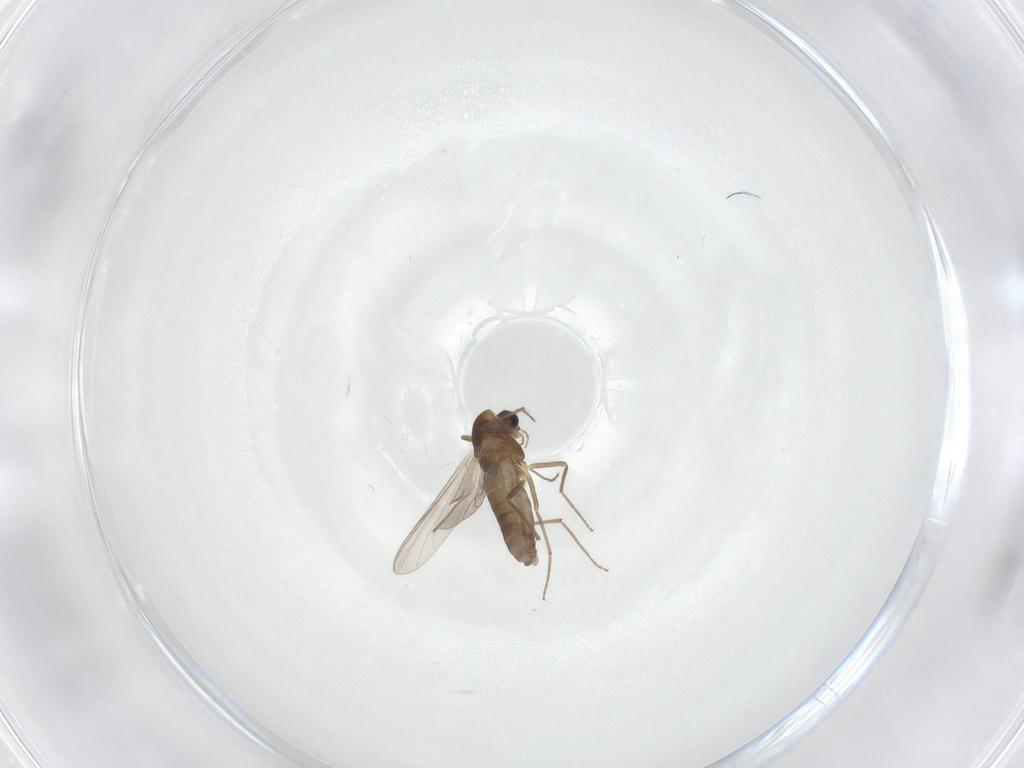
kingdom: Animalia
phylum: Arthropoda
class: Insecta
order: Diptera
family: Chironomidae
